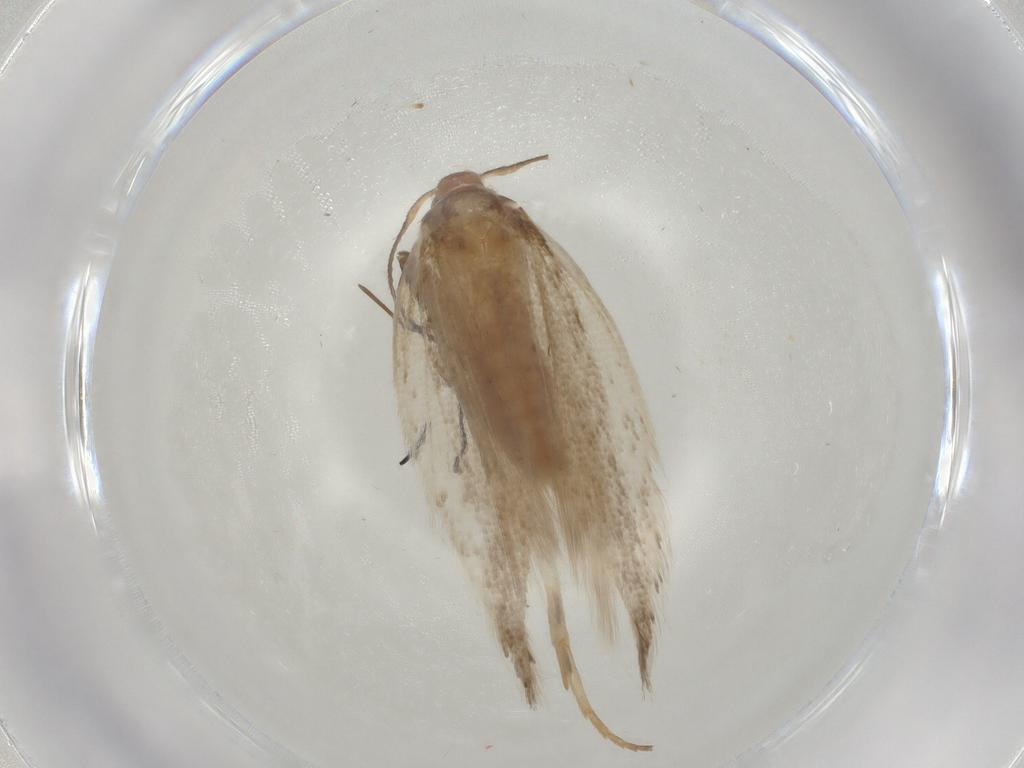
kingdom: Animalia
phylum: Arthropoda
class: Insecta
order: Lepidoptera
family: Gelechiidae
